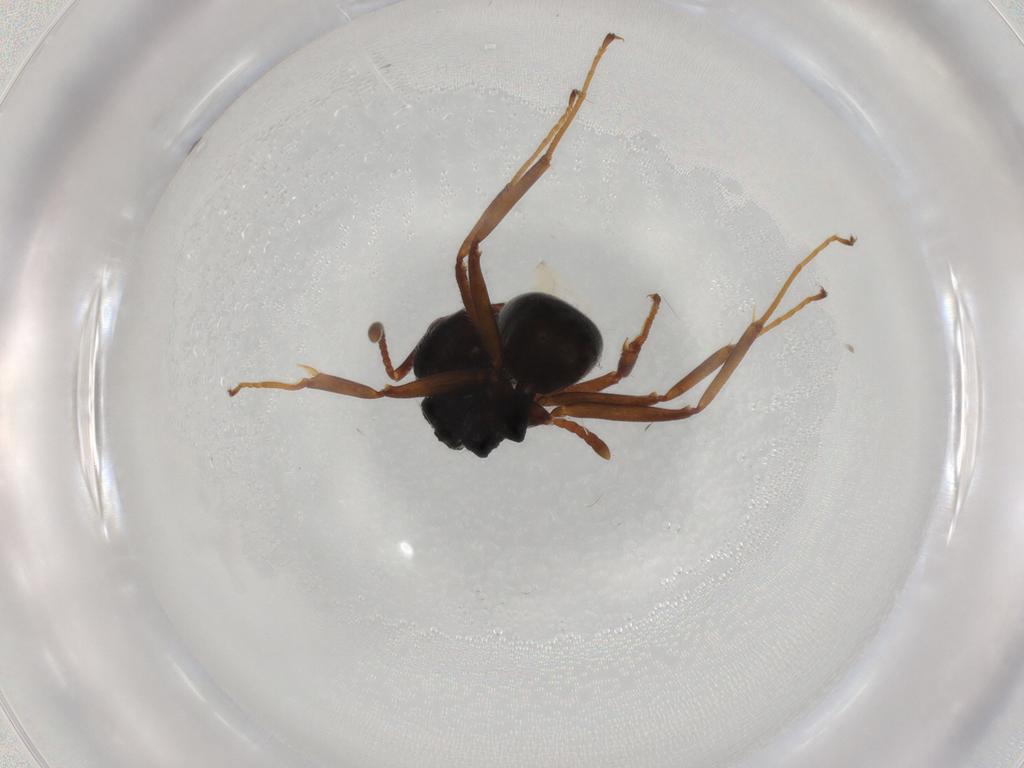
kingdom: Animalia
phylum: Arthropoda
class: Insecta
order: Hymenoptera
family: Formicidae
